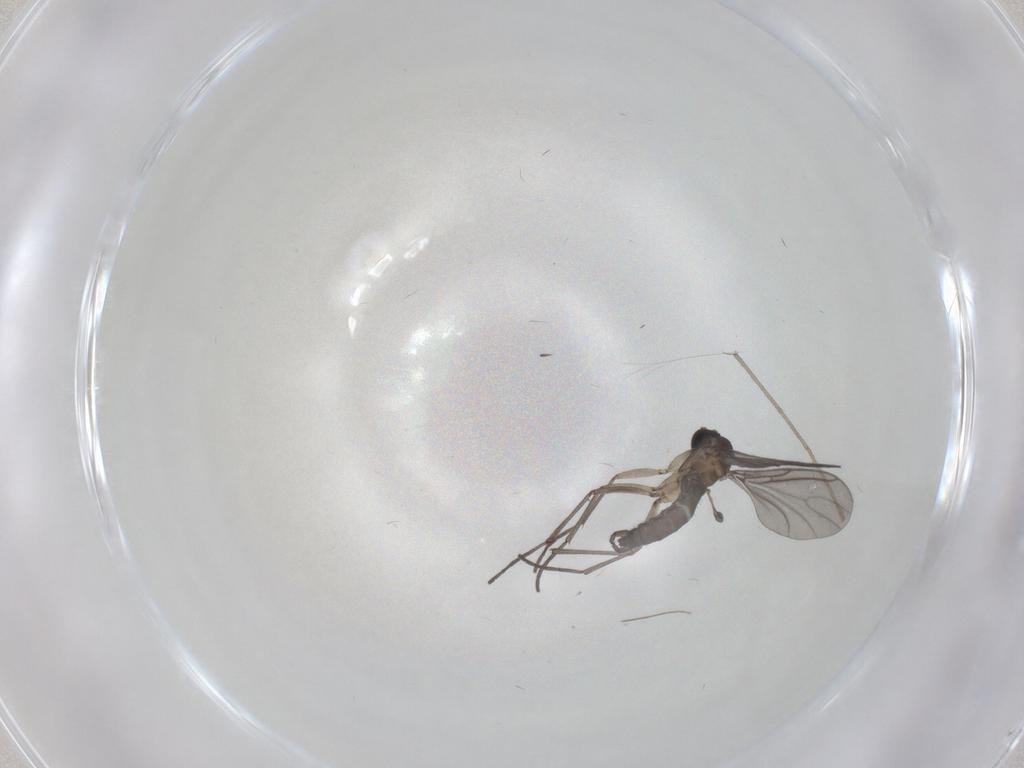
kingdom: Animalia
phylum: Arthropoda
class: Insecta
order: Diptera
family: Sciaridae
